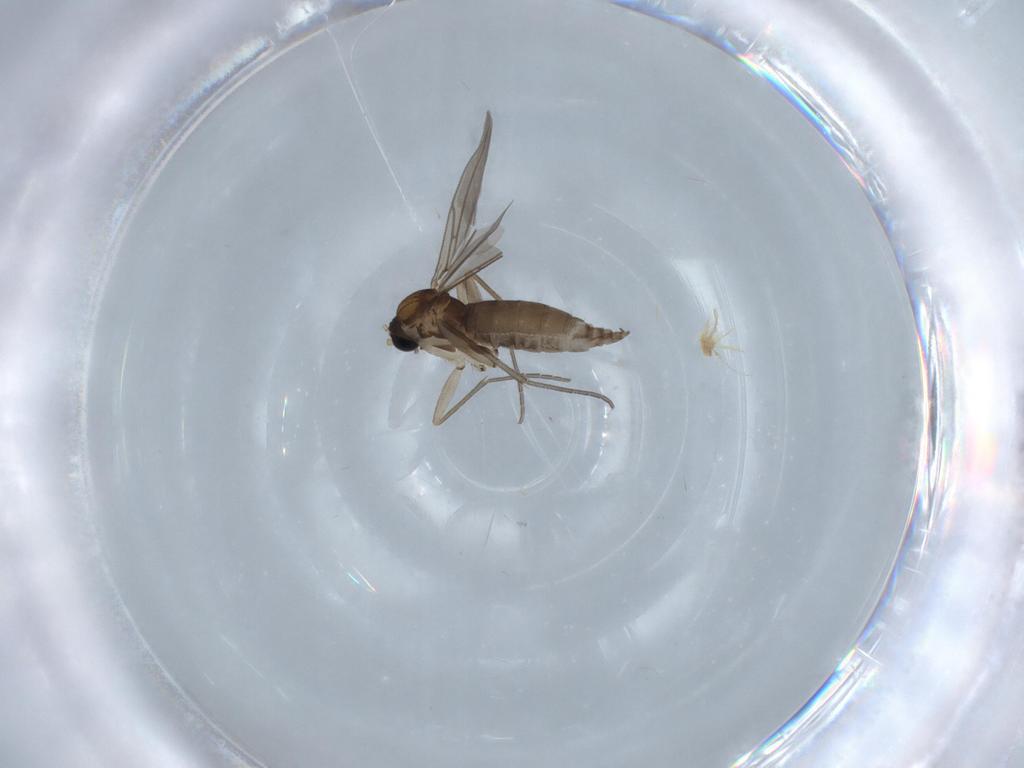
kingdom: Animalia
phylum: Arthropoda
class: Insecta
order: Diptera
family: Sciaridae
